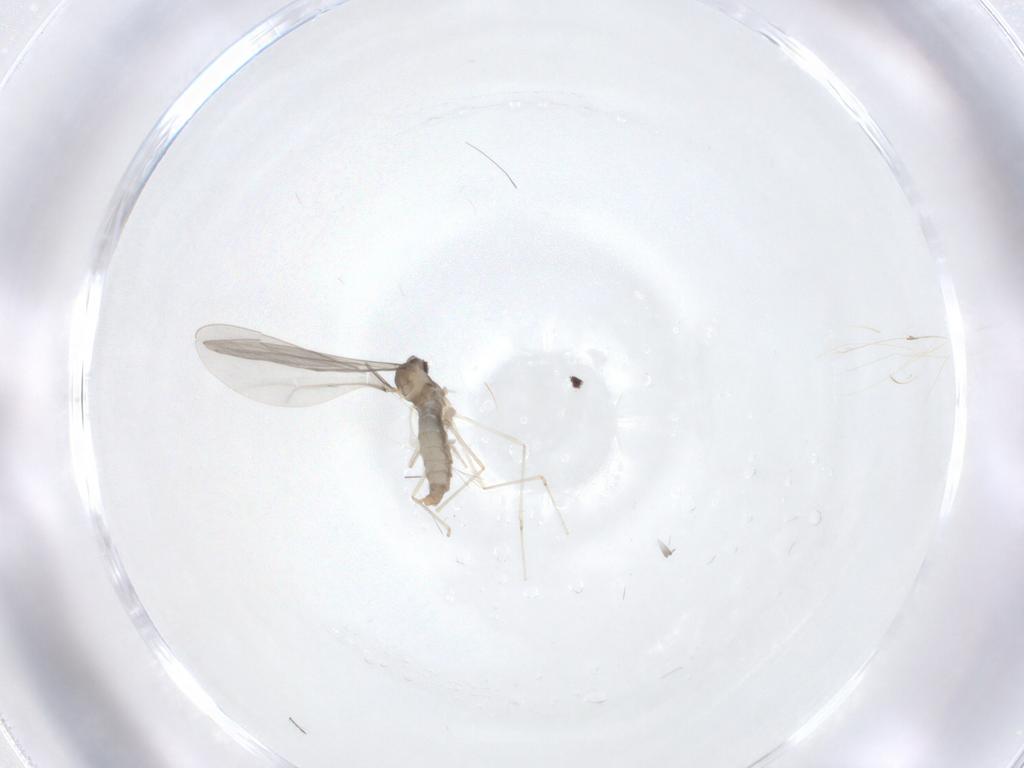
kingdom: Animalia
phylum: Arthropoda
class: Insecta
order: Diptera
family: Cecidomyiidae
